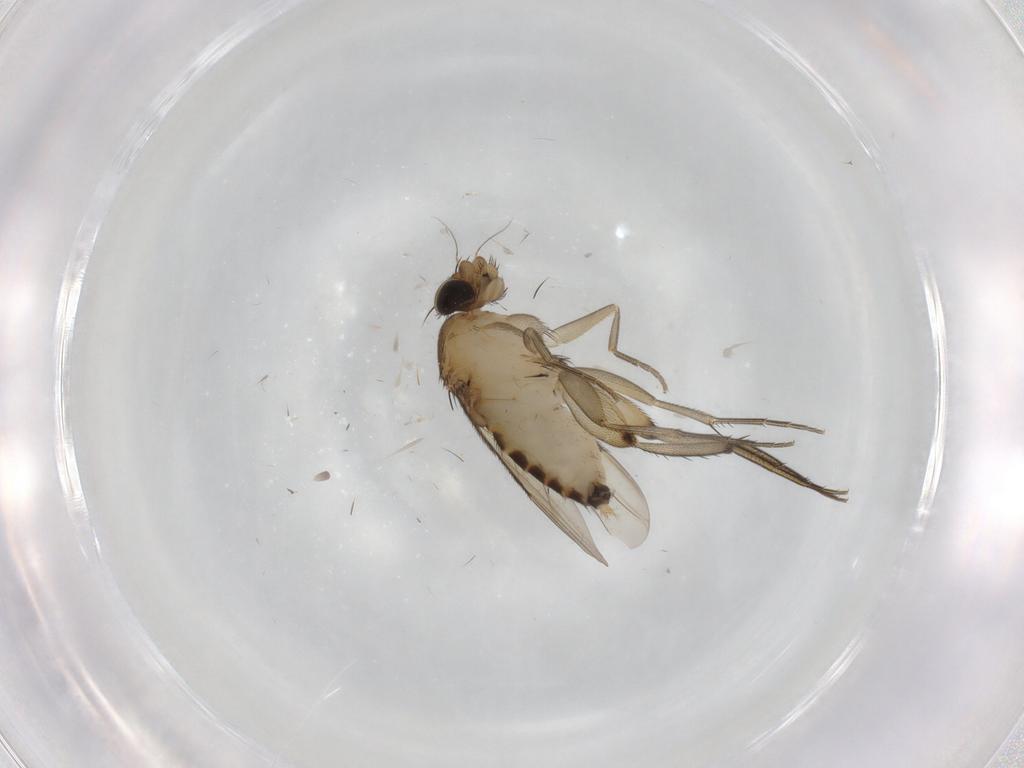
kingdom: Animalia
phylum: Arthropoda
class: Insecta
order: Diptera
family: Phoridae
